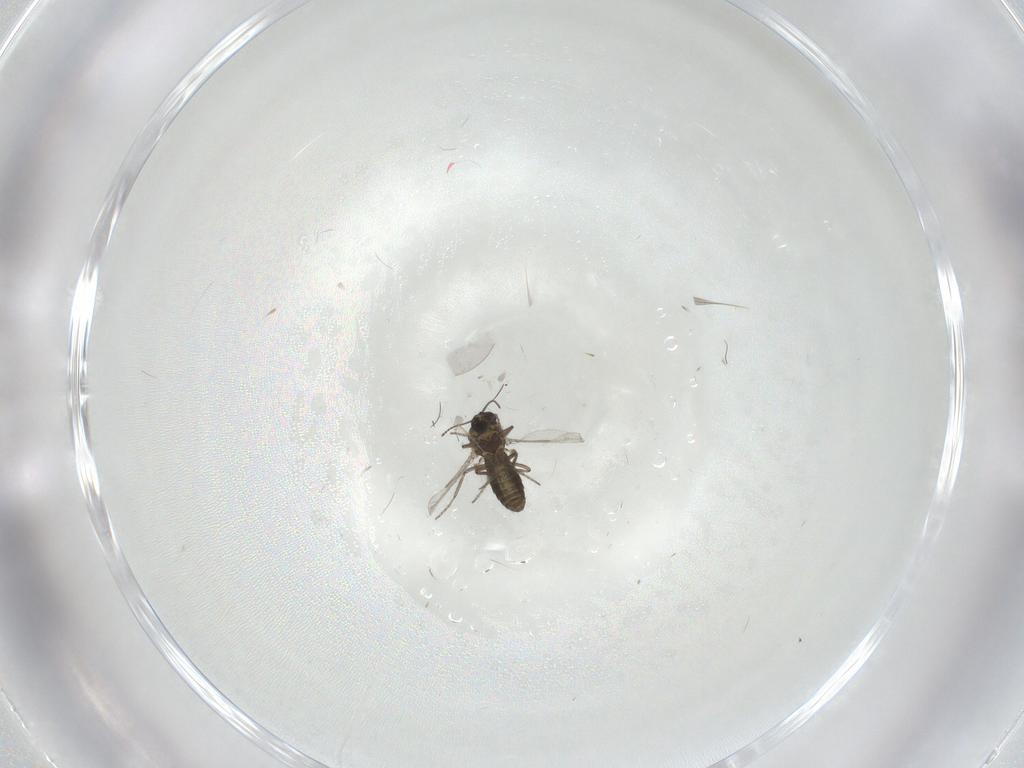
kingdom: Animalia
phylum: Arthropoda
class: Insecta
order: Diptera
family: Ceratopogonidae
